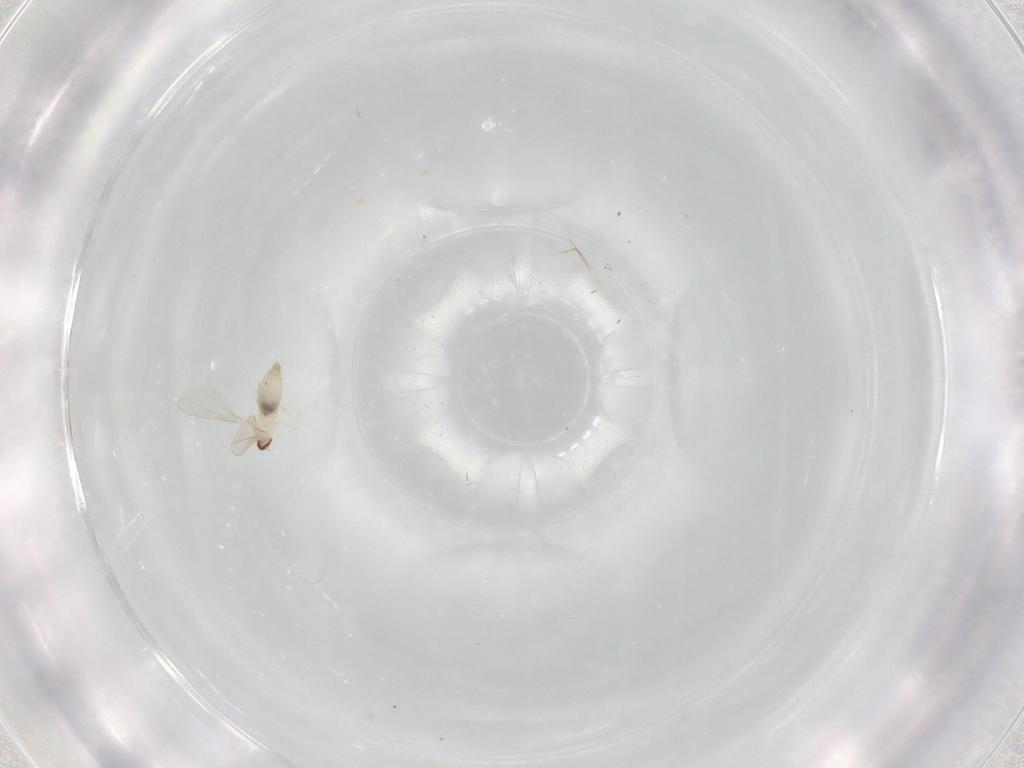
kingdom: Animalia
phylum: Arthropoda
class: Insecta
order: Diptera
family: Cecidomyiidae
